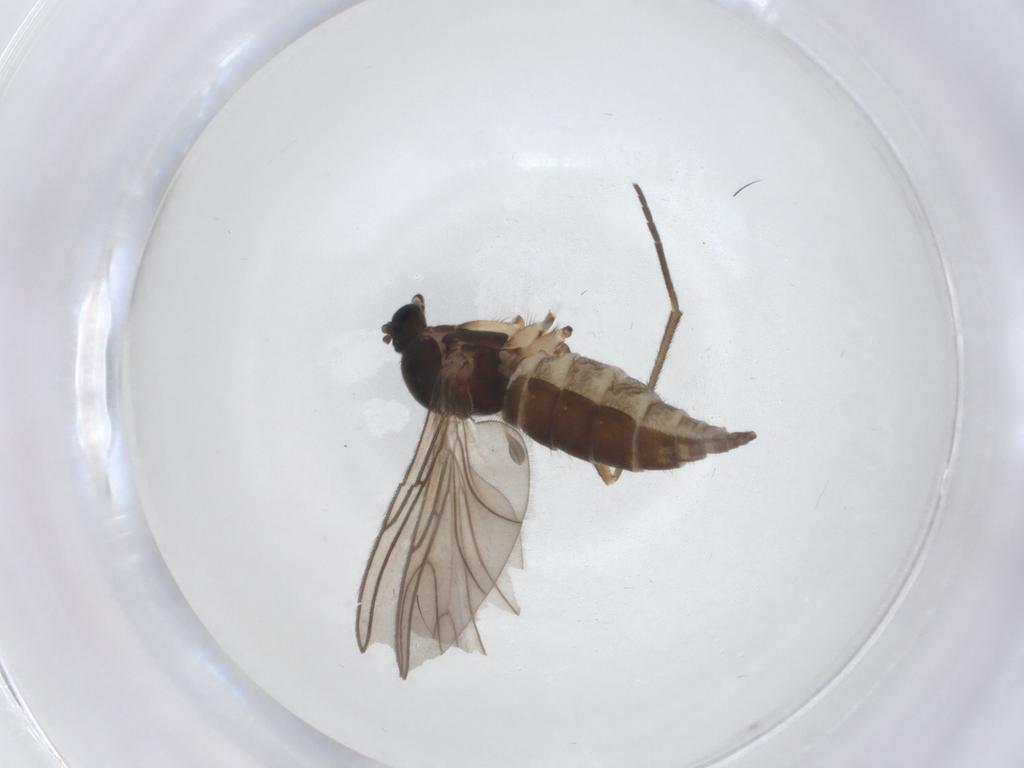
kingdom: Animalia
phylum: Arthropoda
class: Insecta
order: Diptera
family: Sciaridae
